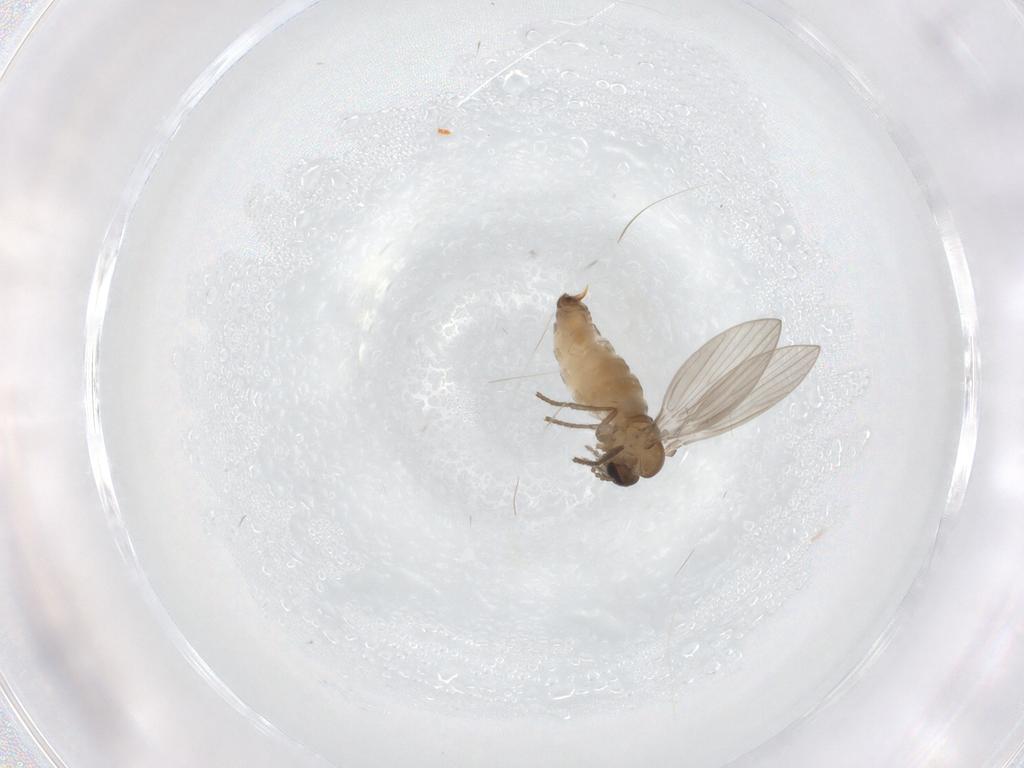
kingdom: Animalia
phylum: Arthropoda
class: Insecta
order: Diptera
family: Psychodidae
